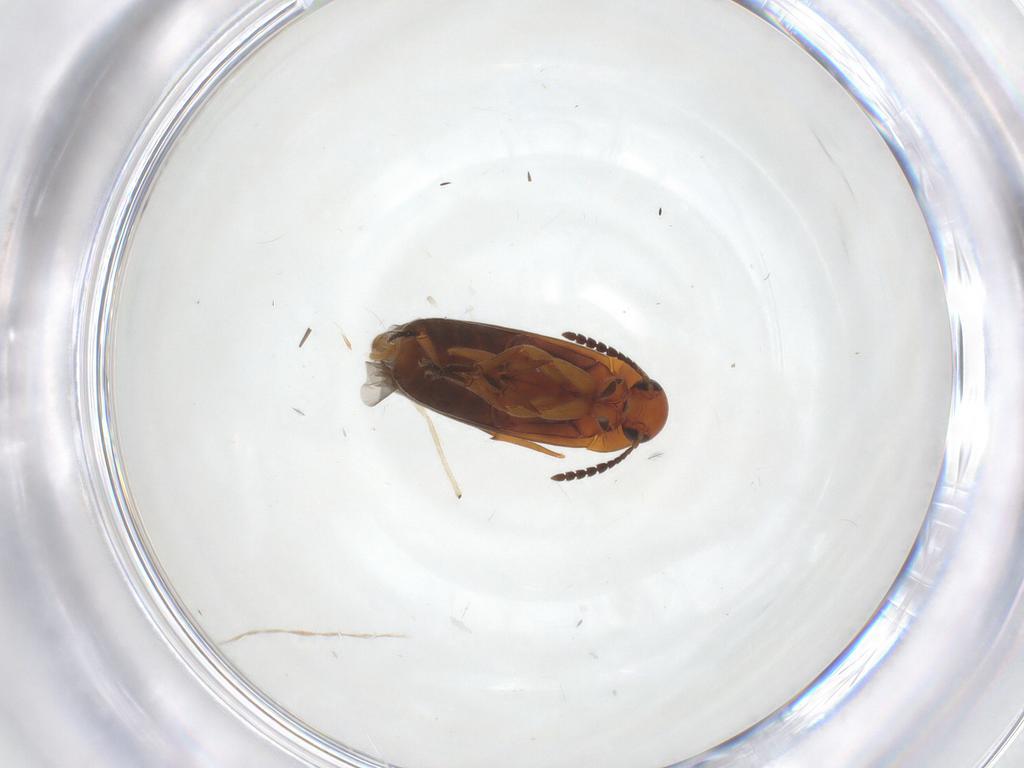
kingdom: Animalia
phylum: Arthropoda
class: Insecta
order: Coleoptera
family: Scraptiidae
